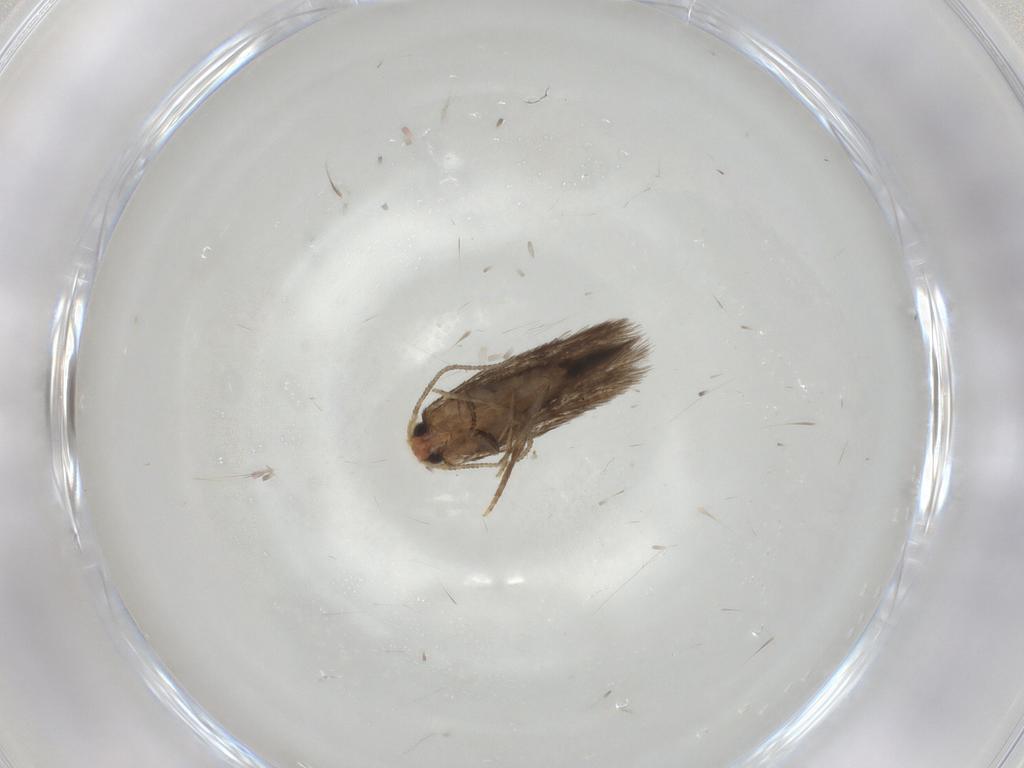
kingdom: Animalia
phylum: Arthropoda
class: Insecta
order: Lepidoptera
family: Nepticulidae
